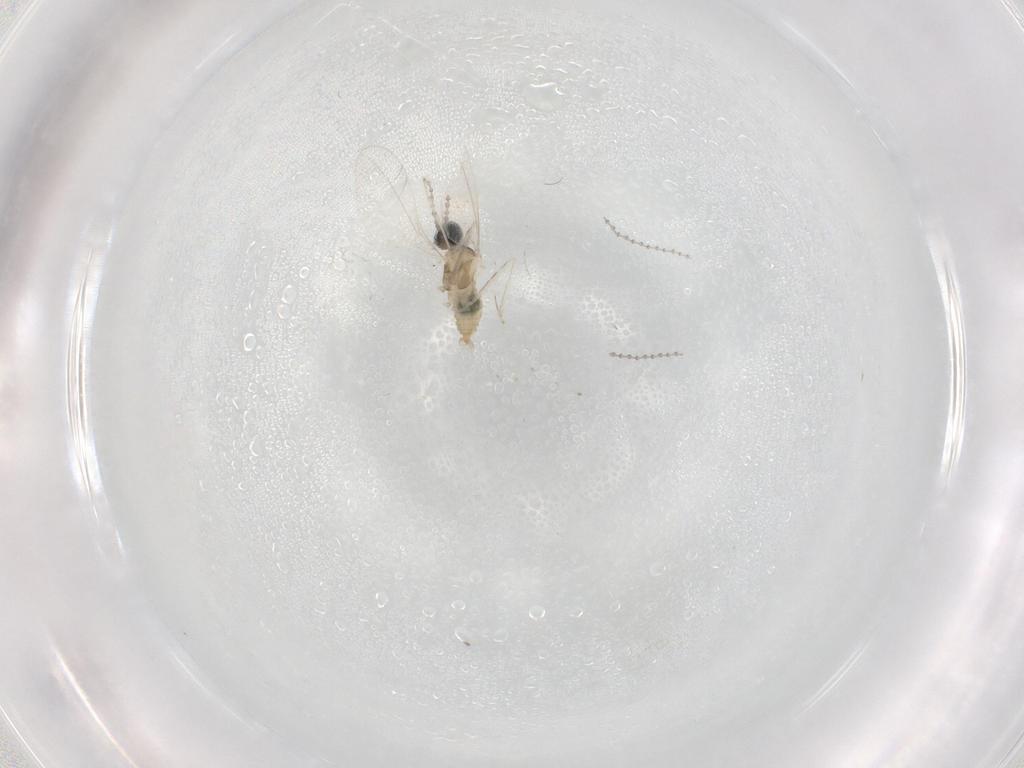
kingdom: Animalia
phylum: Arthropoda
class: Insecta
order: Diptera
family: Cecidomyiidae
